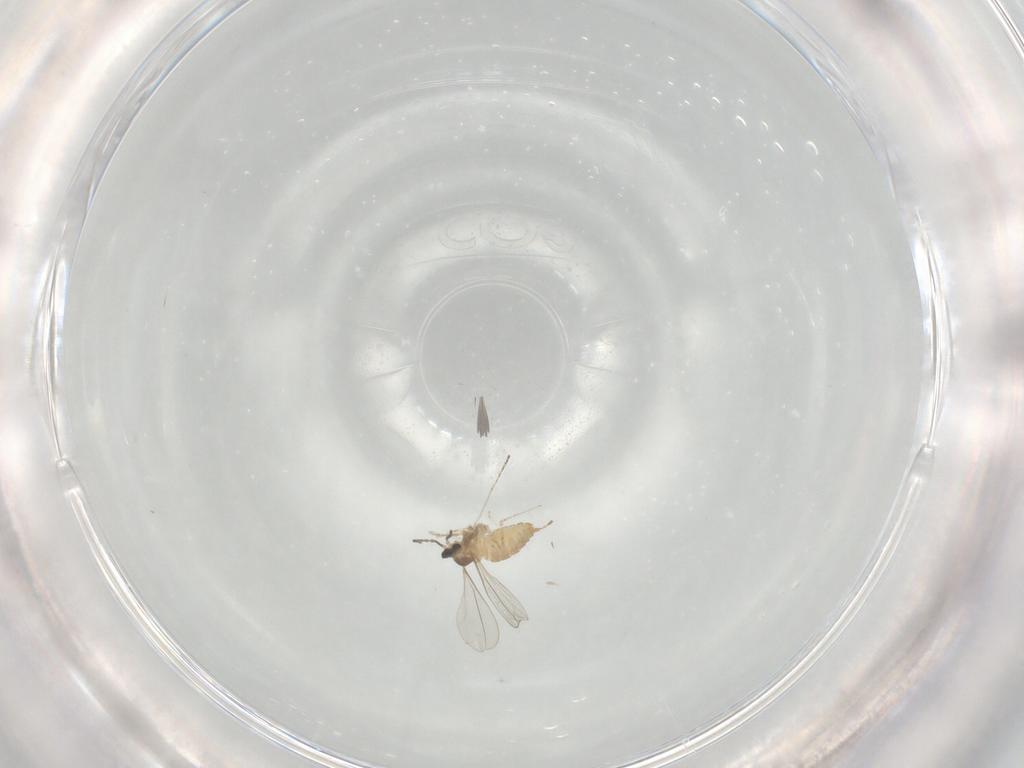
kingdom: Animalia
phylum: Arthropoda
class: Insecta
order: Diptera
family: Cecidomyiidae
